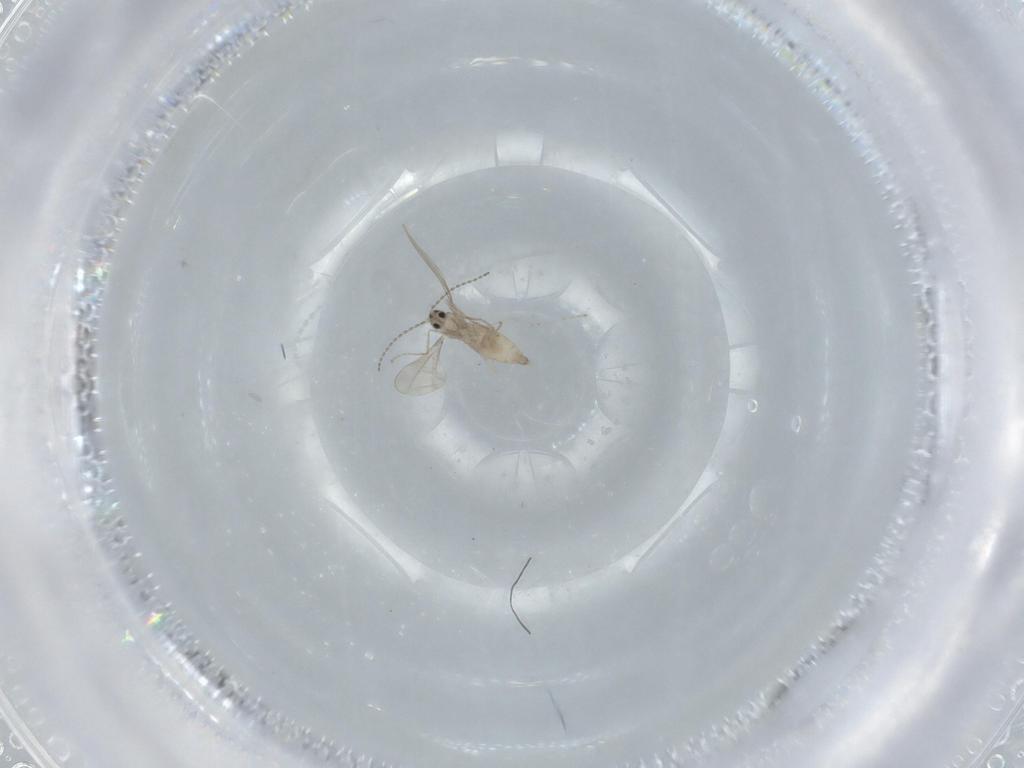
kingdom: Animalia
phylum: Arthropoda
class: Insecta
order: Diptera
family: Cecidomyiidae
